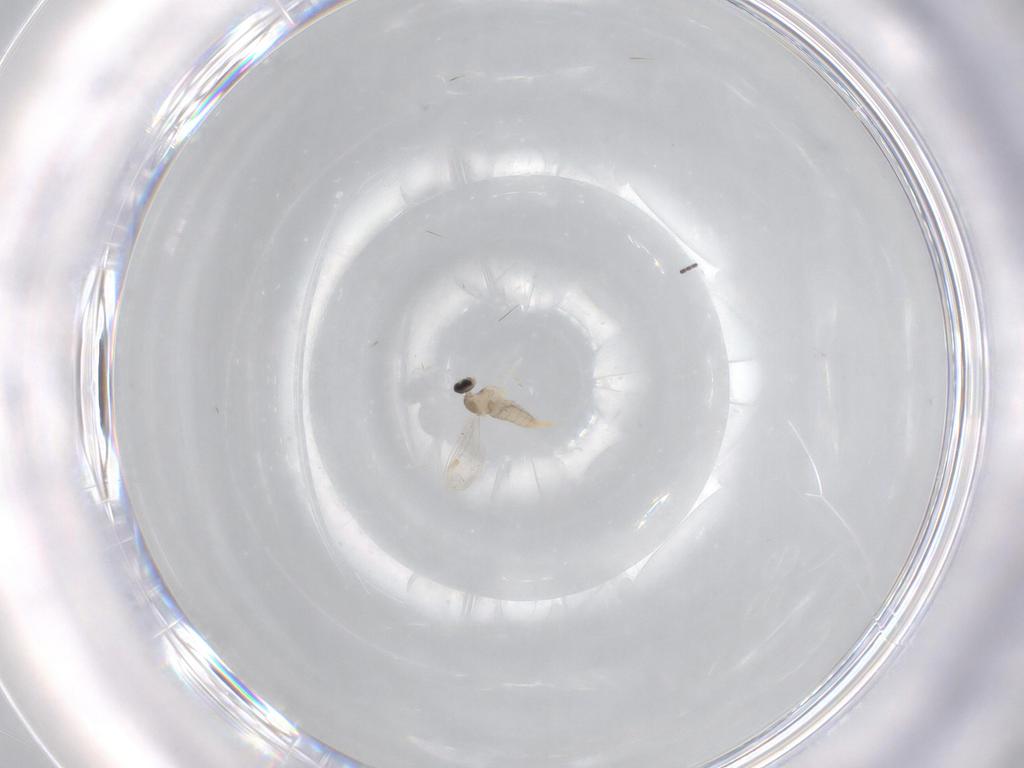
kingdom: Animalia
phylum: Arthropoda
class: Insecta
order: Diptera
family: Cecidomyiidae
